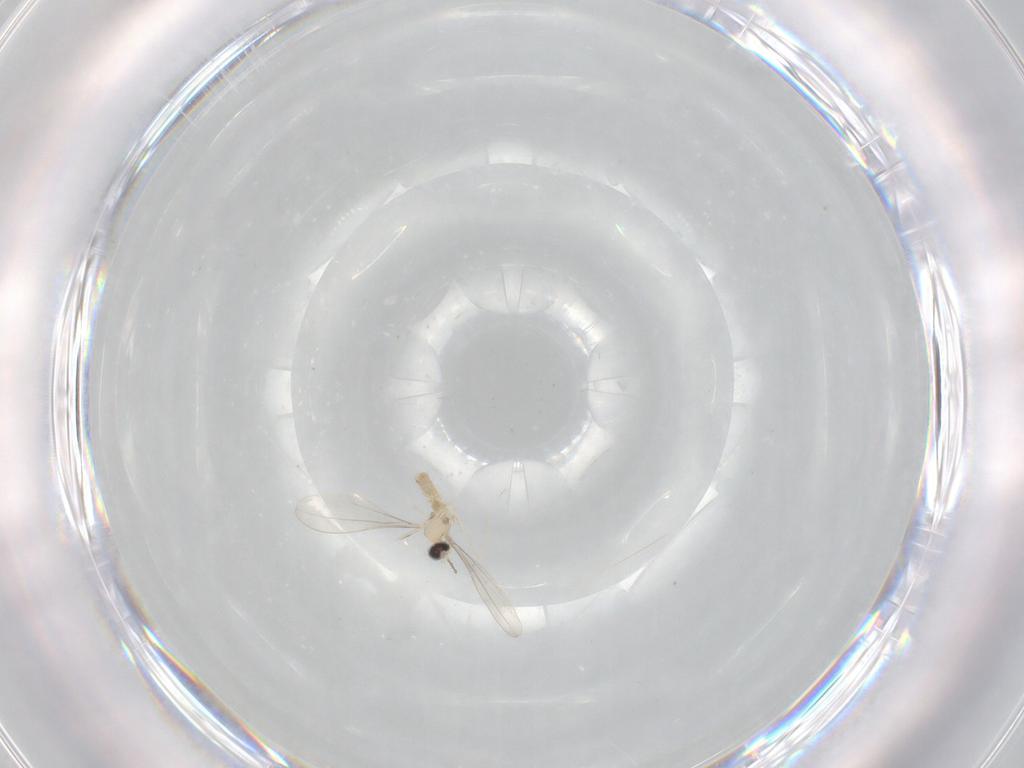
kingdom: Animalia
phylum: Arthropoda
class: Insecta
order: Diptera
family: Cecidomyiidae
